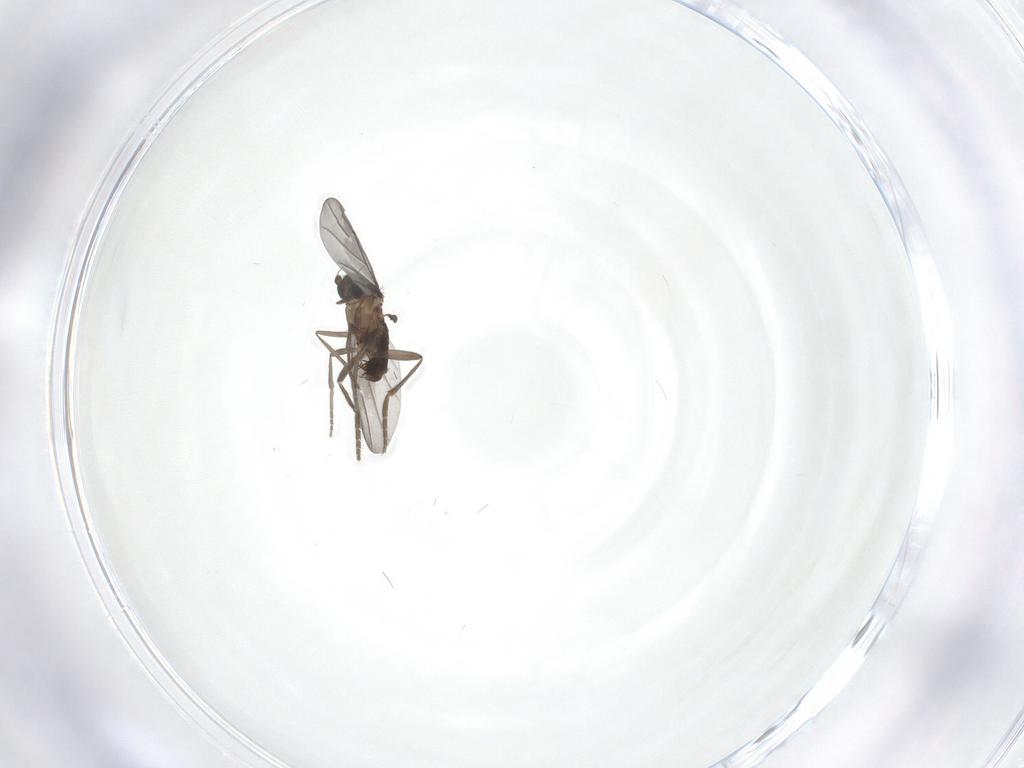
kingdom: Animalia
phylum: Arthropoda
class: Insecta
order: Diptera
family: Phoridae
